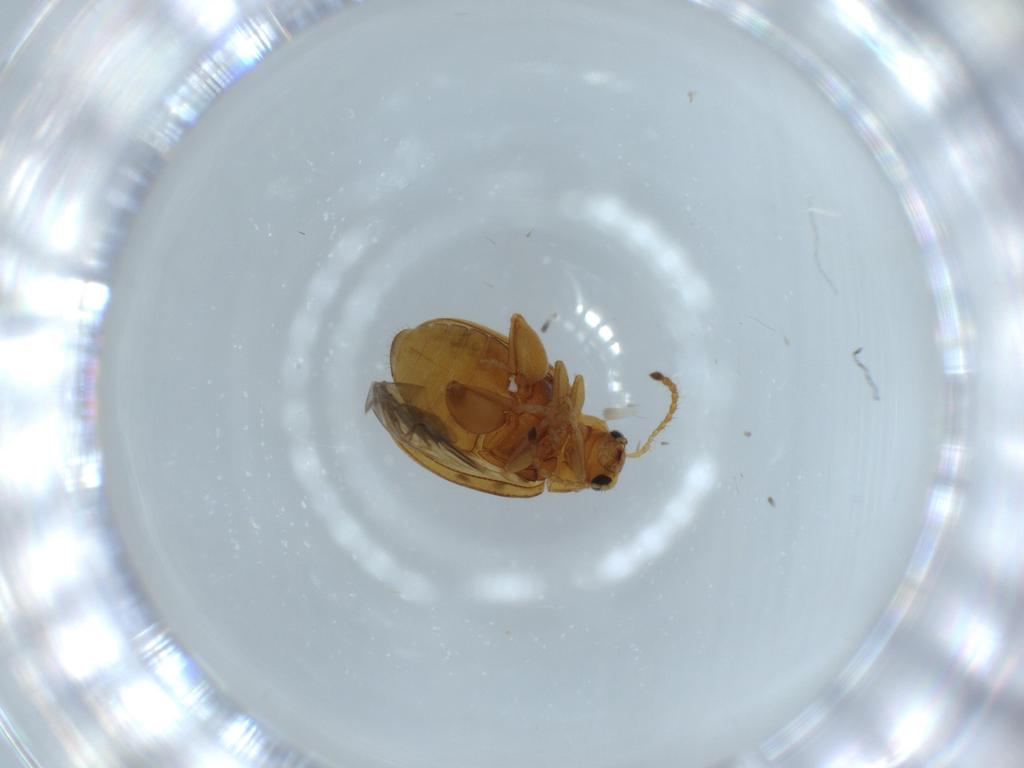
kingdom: Animalia
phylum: Arthropoda
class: Insecta
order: Coleoptera
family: Chrysomelidae
